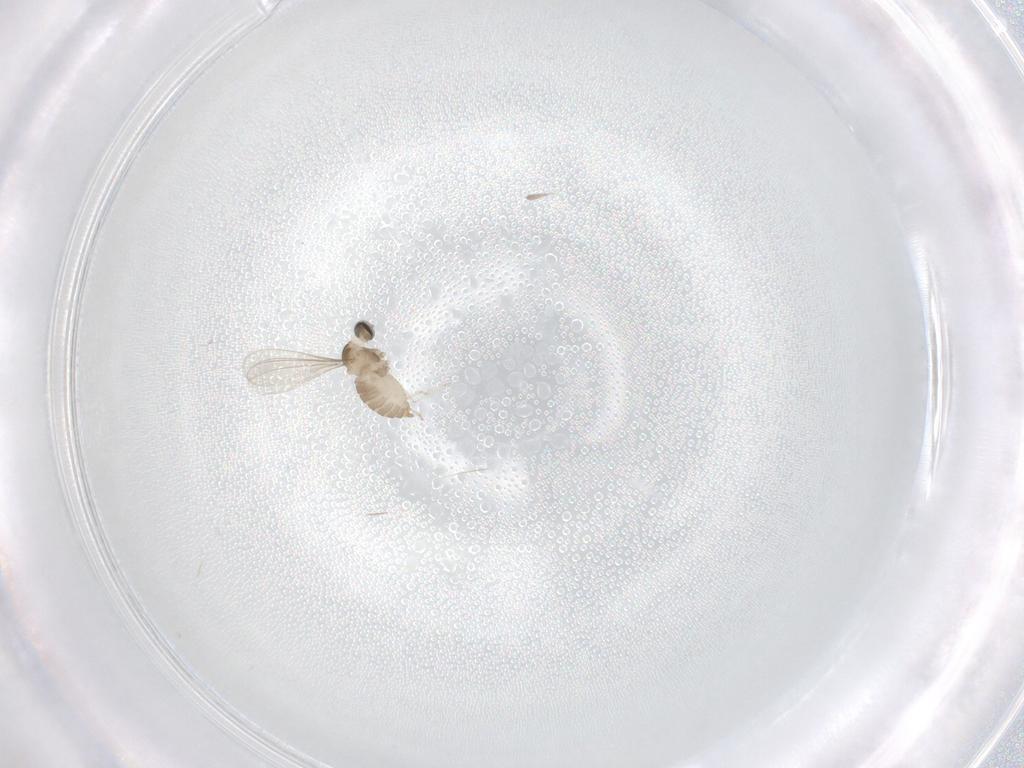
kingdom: Animalia
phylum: Arthropoda
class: Insecta
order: Diptera
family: Cecidomyiidae
